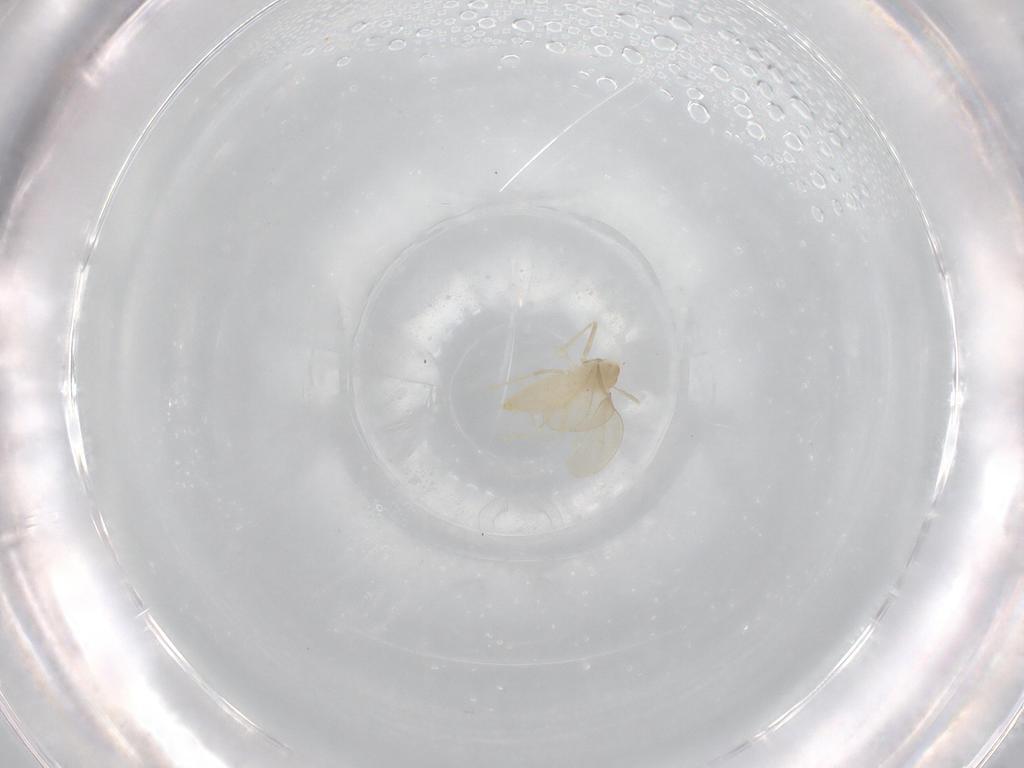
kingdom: Animalia
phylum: Arthropoda
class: Insecta
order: Diptera
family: Cecidomyiidae
